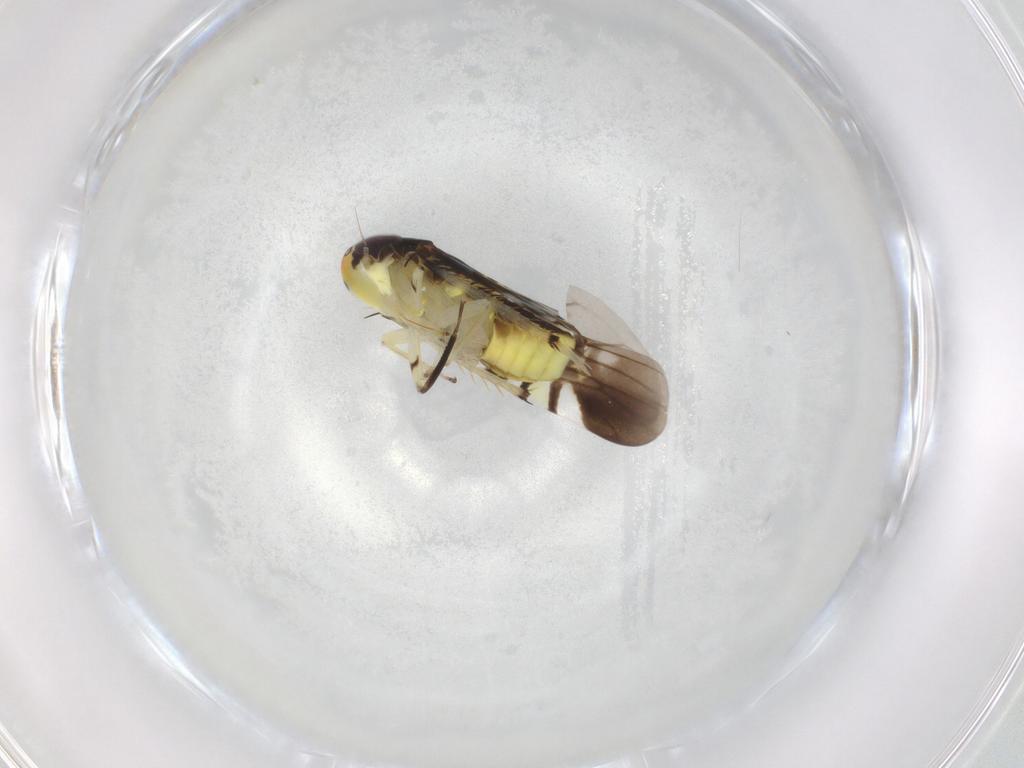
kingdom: Animalia
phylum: Arthropoda
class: Insecta
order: Hemiptera
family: Cicadellidae
